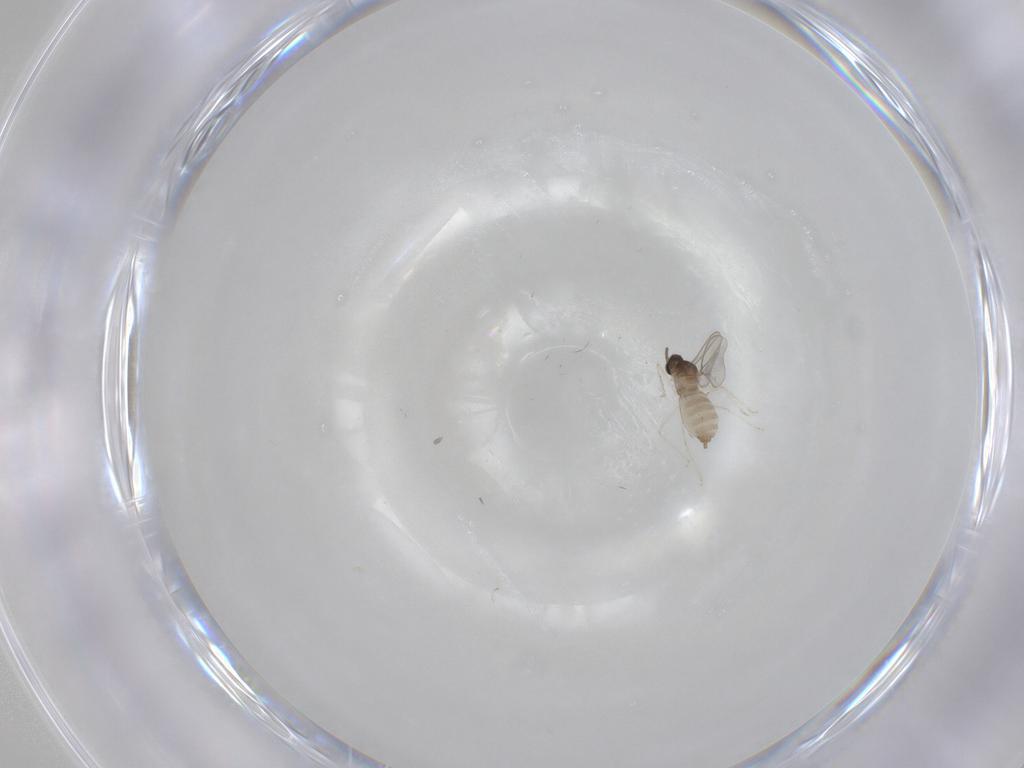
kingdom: Animalia
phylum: Arthropoda
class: Insecta
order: Diptera
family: Cecidomyiidae
